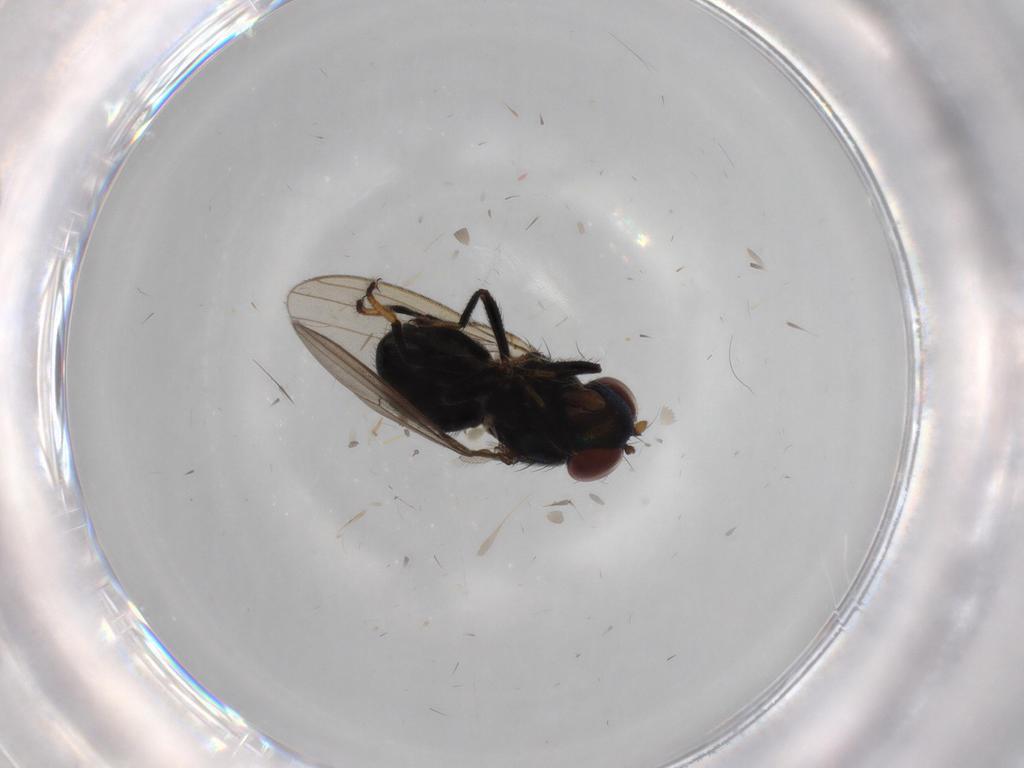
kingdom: Animalia
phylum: Arthropoda
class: Insecta
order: Diptera
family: Ephydridae
